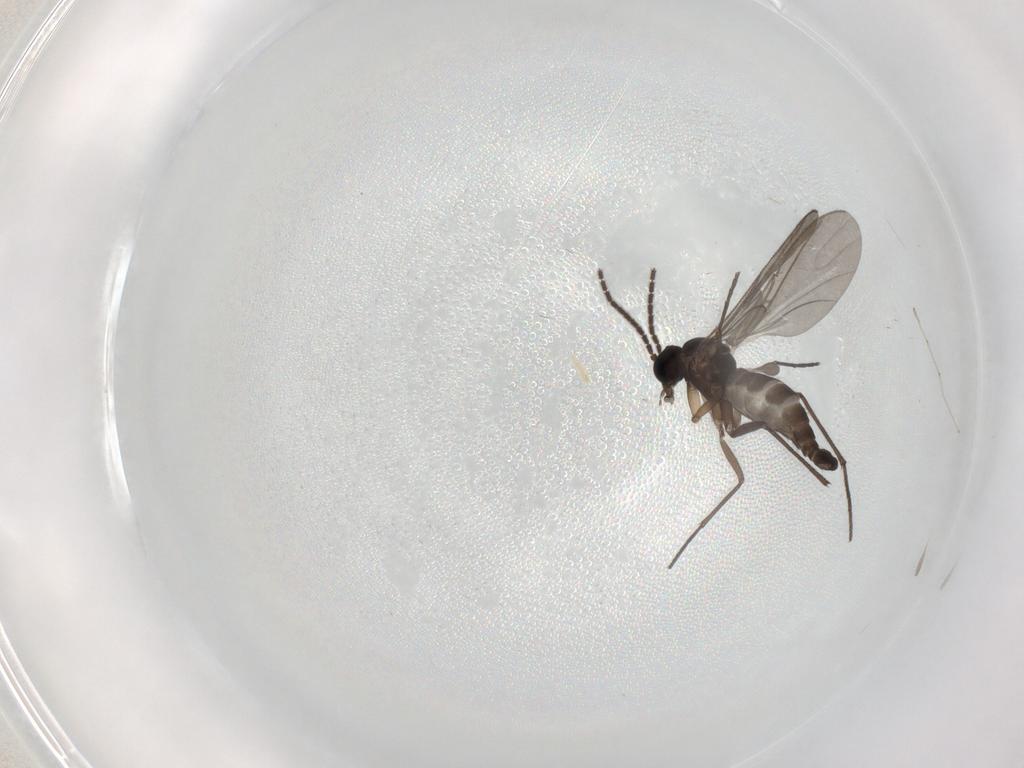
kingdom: Animalia
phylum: Arthropoda
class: Insecta
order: Diptera
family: Sciaridae
